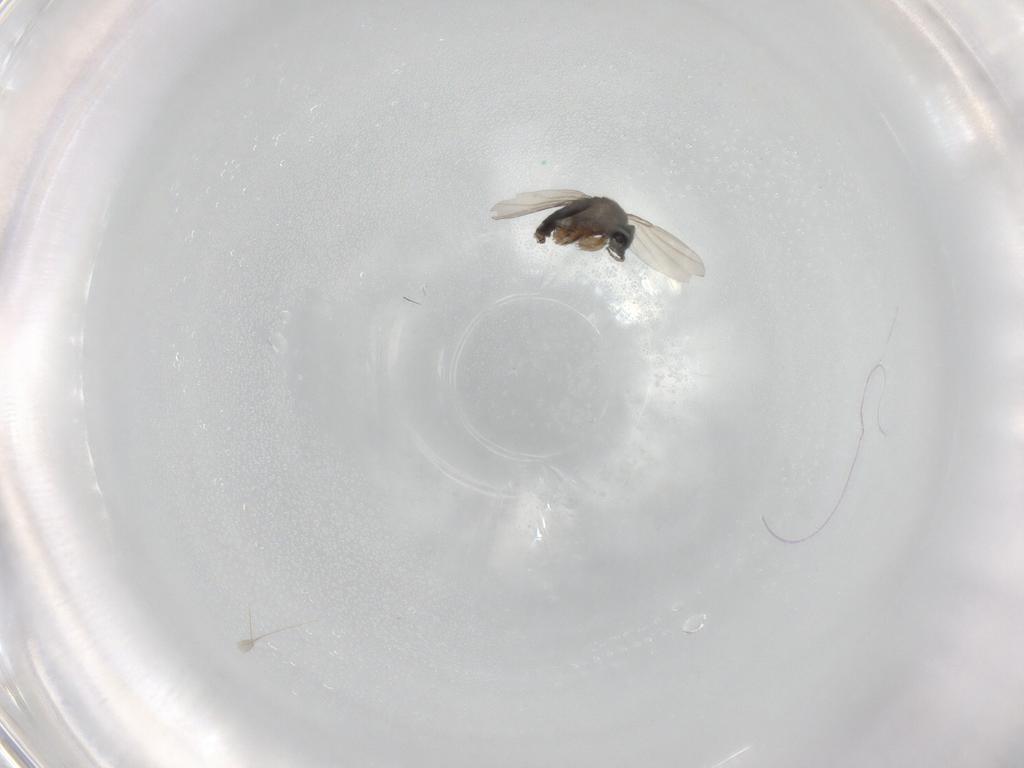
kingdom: Animalia
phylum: Arthropoda
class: Insecta
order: Diptera
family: Phoridae
